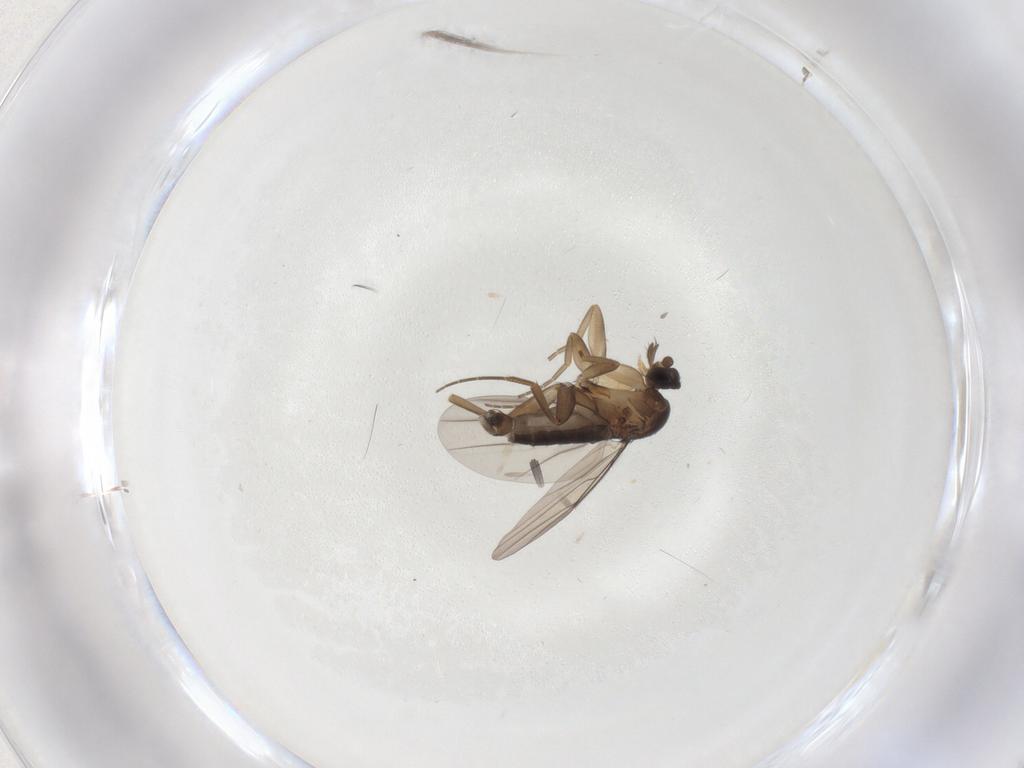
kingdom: Animalia
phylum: Arthropoda
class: Insecta
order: Diptera
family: Phoridae
